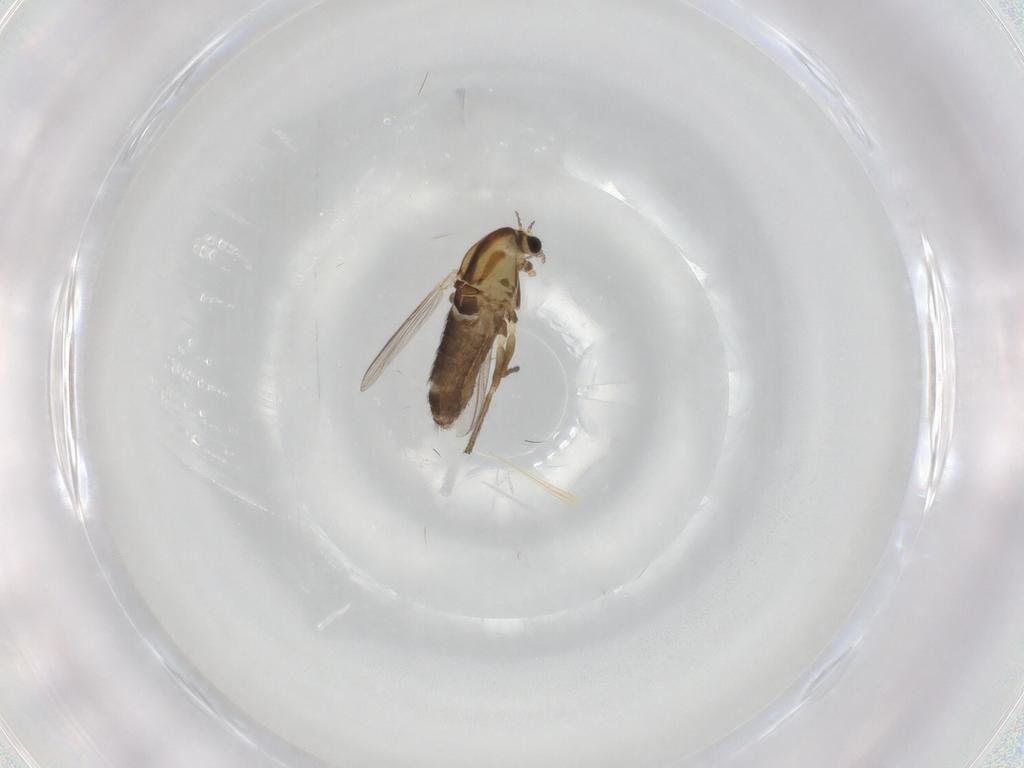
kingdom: Animalia
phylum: Arthropoda
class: Insecta
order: Diptera
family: Chironomidae
